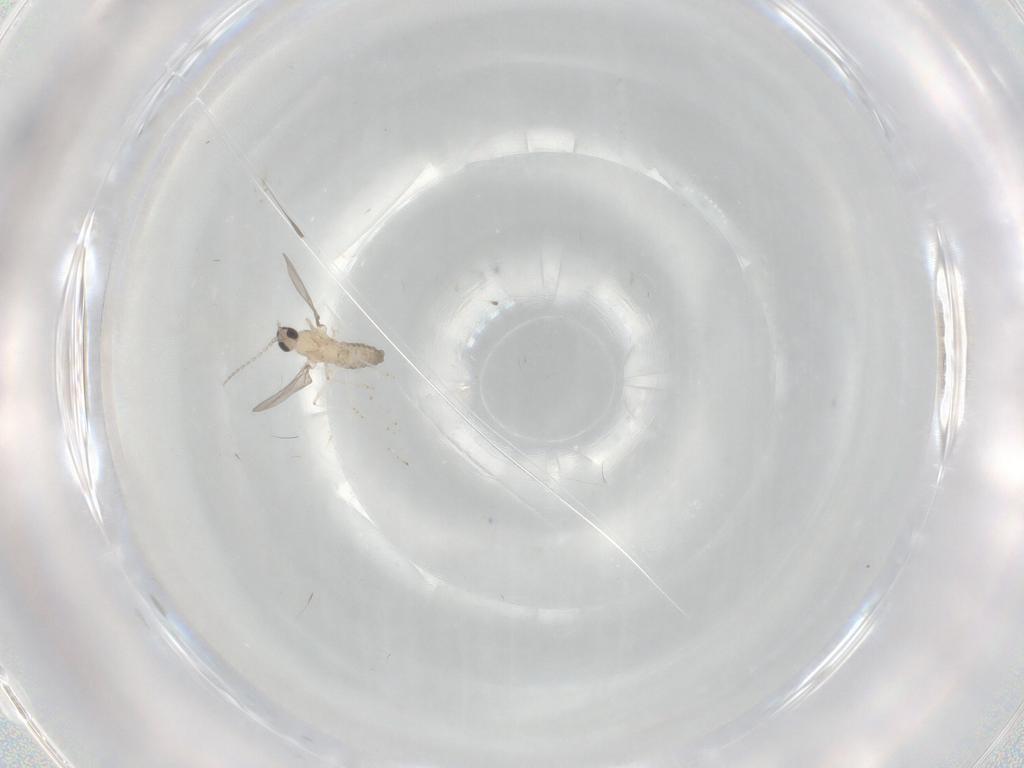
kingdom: Animalia
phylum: Arthropoda
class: Insecta
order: Diptera
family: Cecidomyiidae
